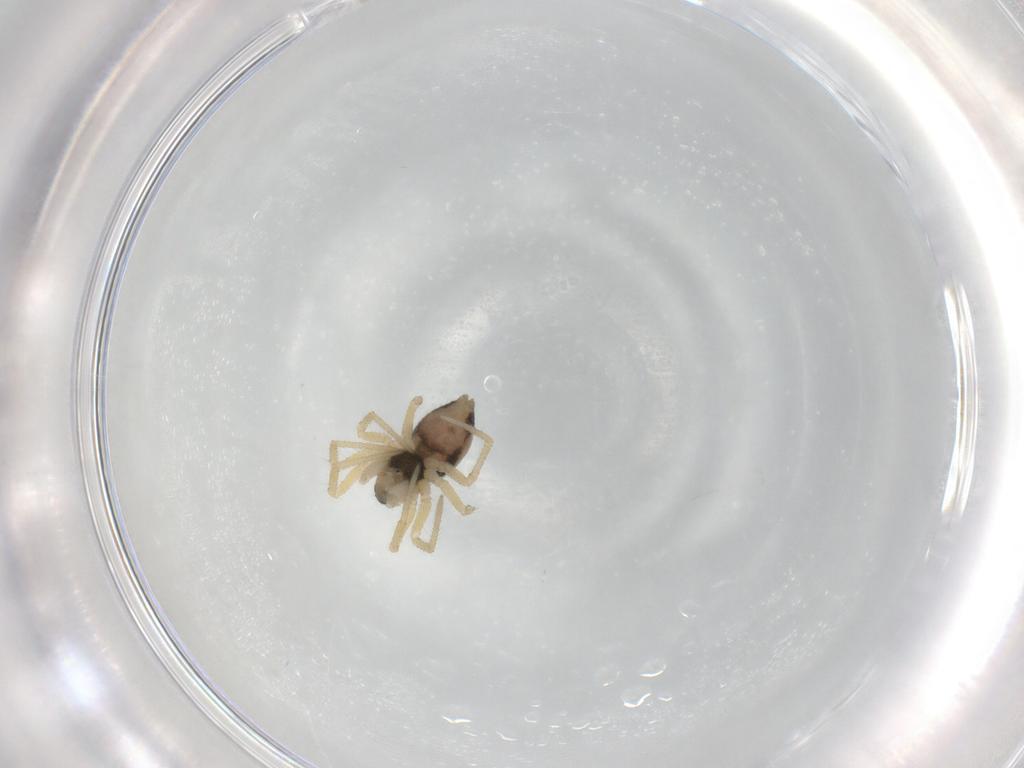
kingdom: Animalia
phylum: Arthropoda
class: Arachnida
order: Araneae
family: Linyphiidae
